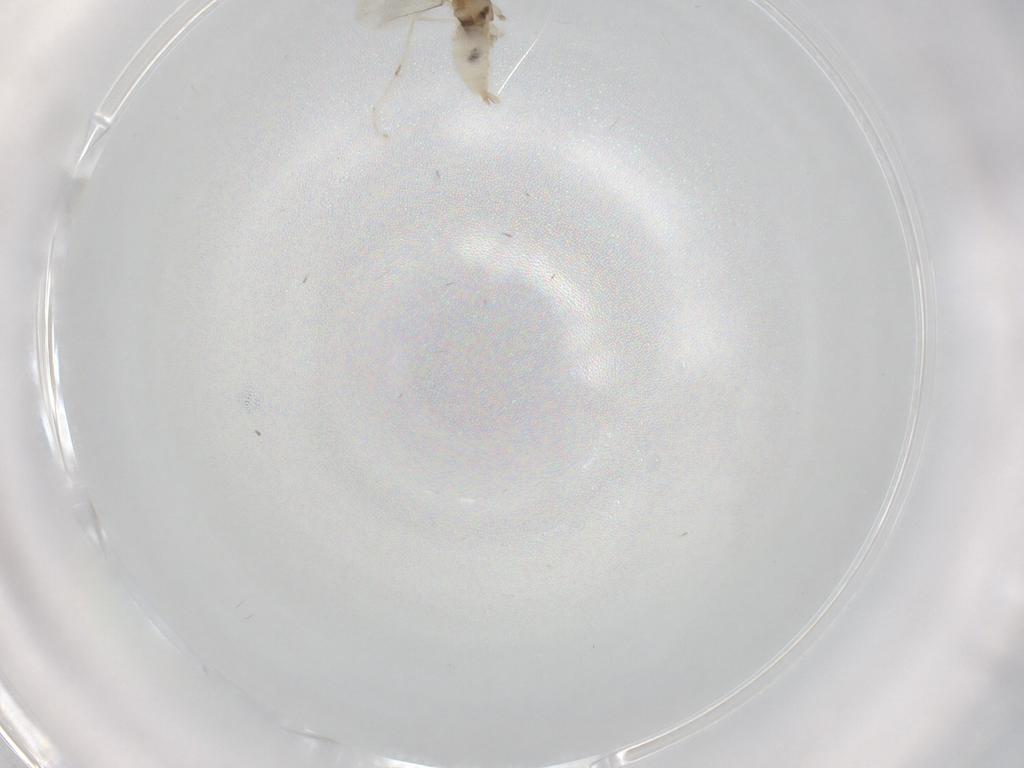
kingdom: Animalia
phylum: Arthropoda
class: Insecta
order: Diptera
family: Cecidomyiidae
